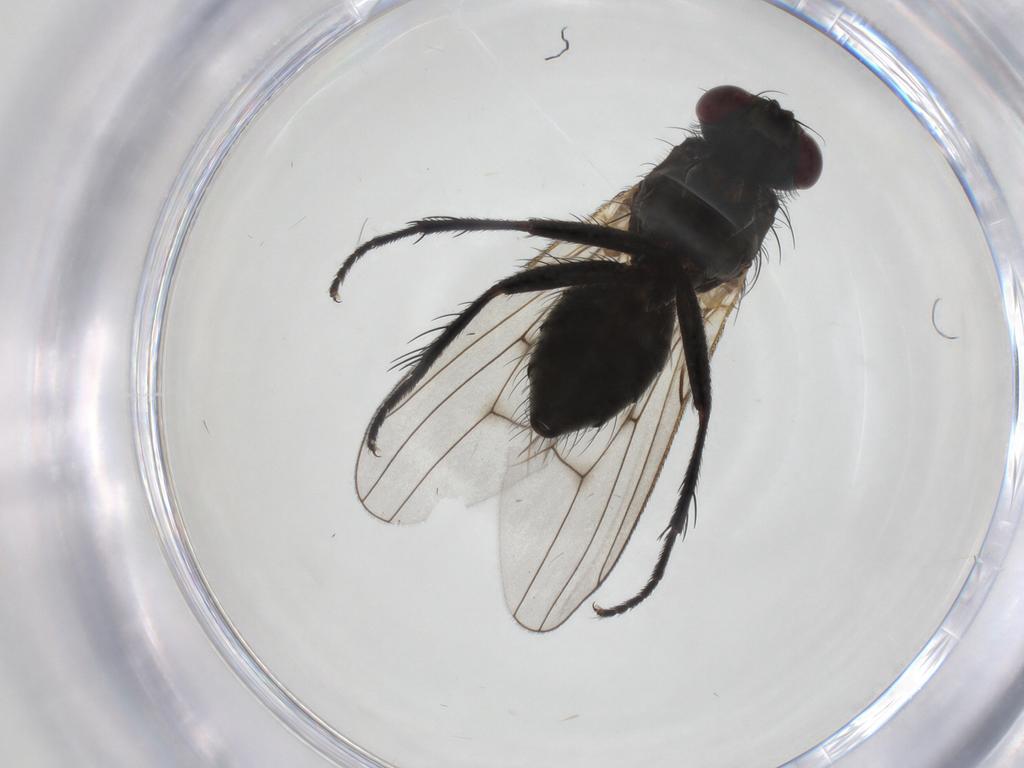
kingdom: Animalia
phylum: Arthropoda
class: Insecta
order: Diptera
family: Muscidae
